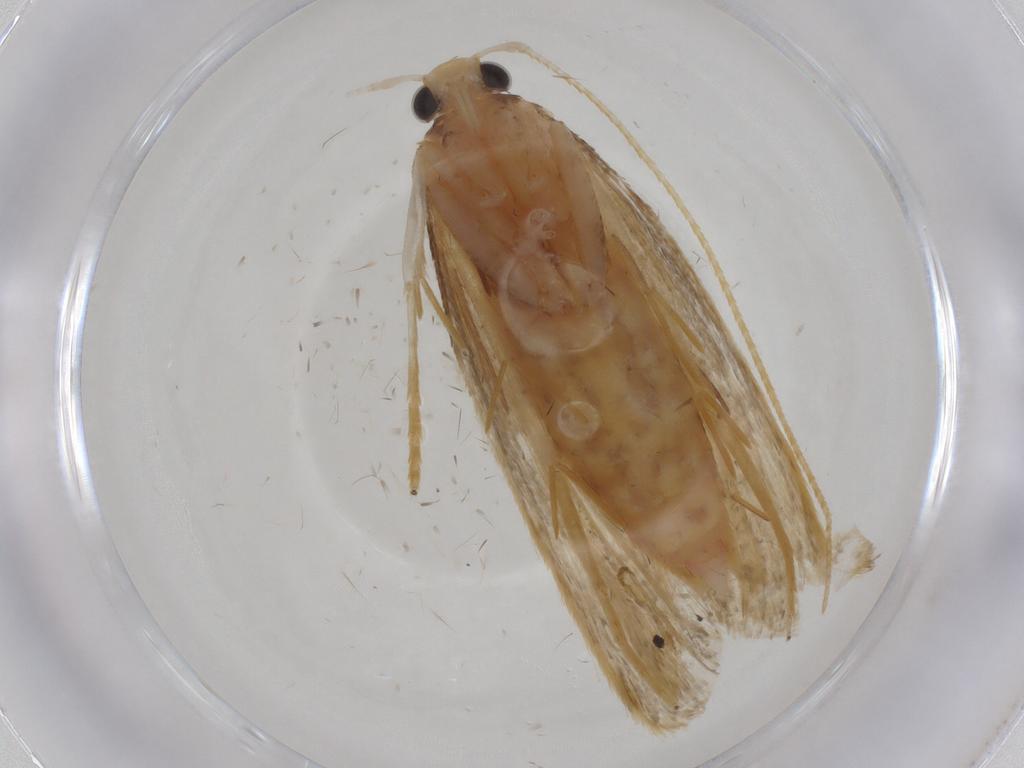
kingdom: Animalia
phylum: Arthropoda
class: Insecta
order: Lepidoptera
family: Lecithoceridae
